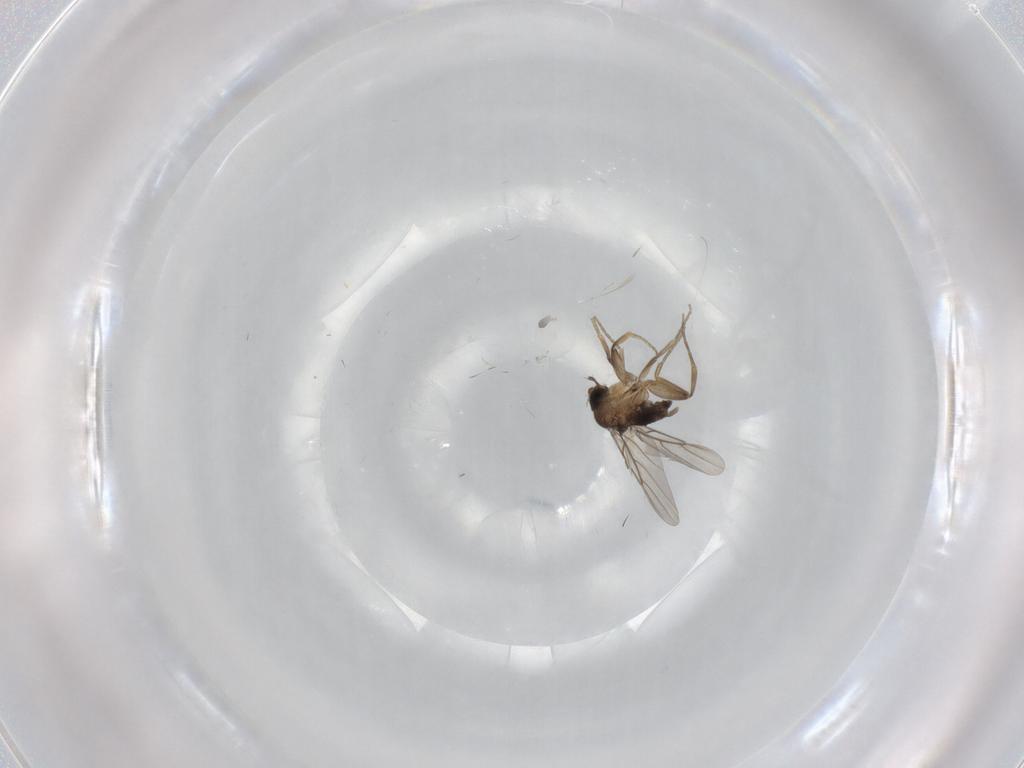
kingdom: Animalia
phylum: Arthropoda
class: Insecta
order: Diptera
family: Phoridae
